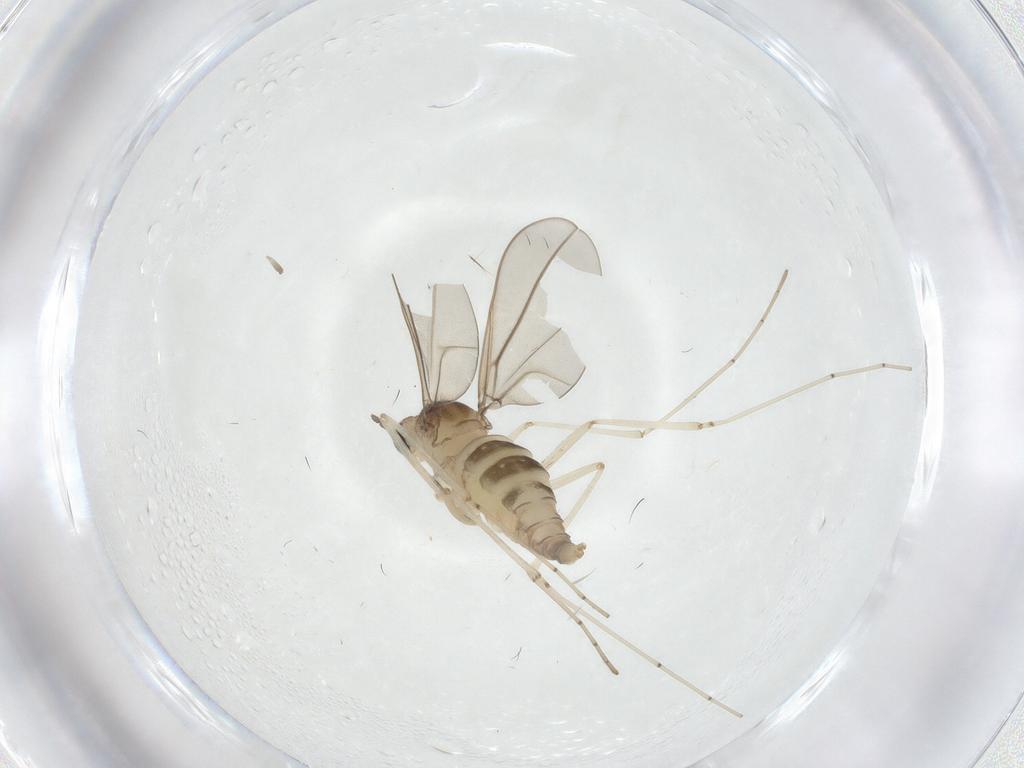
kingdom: Animalia
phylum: Arthropoda
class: Insecta
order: Diptera
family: Cecidomyiidae
